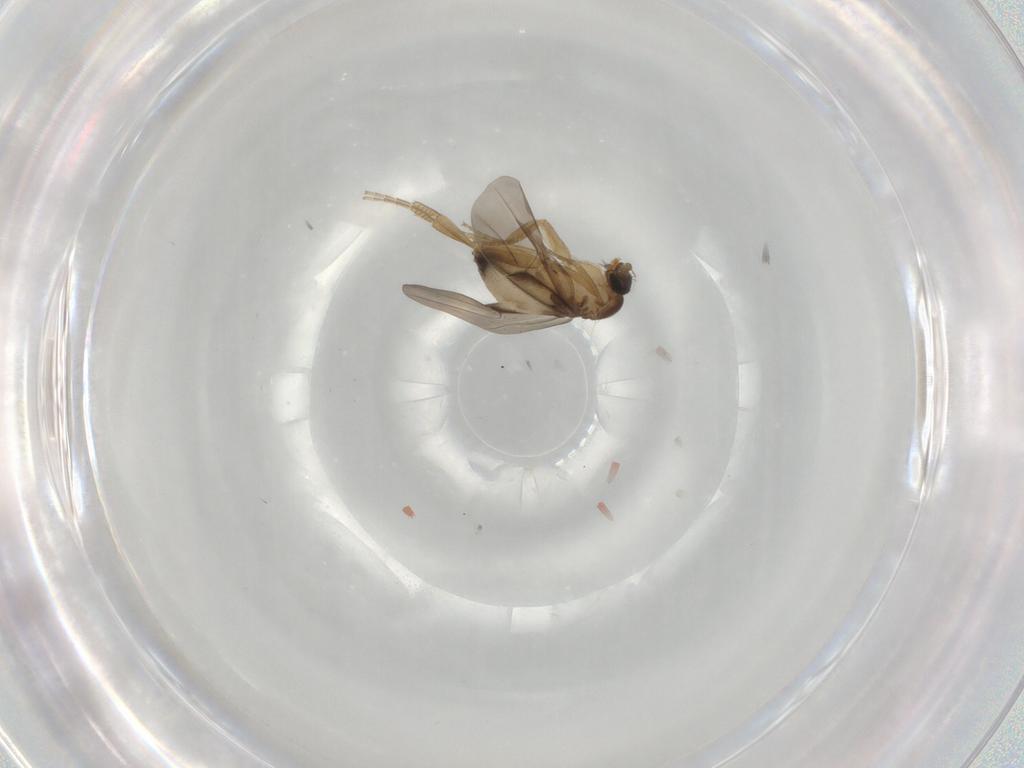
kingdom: Animalia
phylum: Arthropoda
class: Insecta
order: Diptera
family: Phoridae
